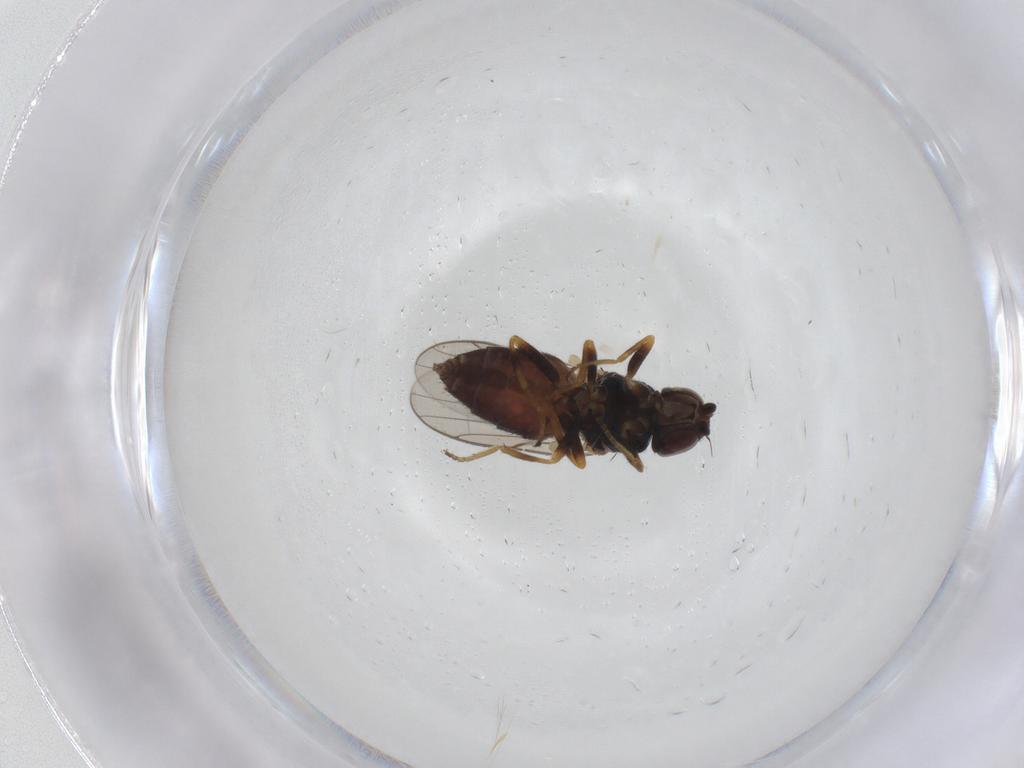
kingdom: Animalia
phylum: Arthropoda
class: Insecta
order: Diptera
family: Chloropidae
